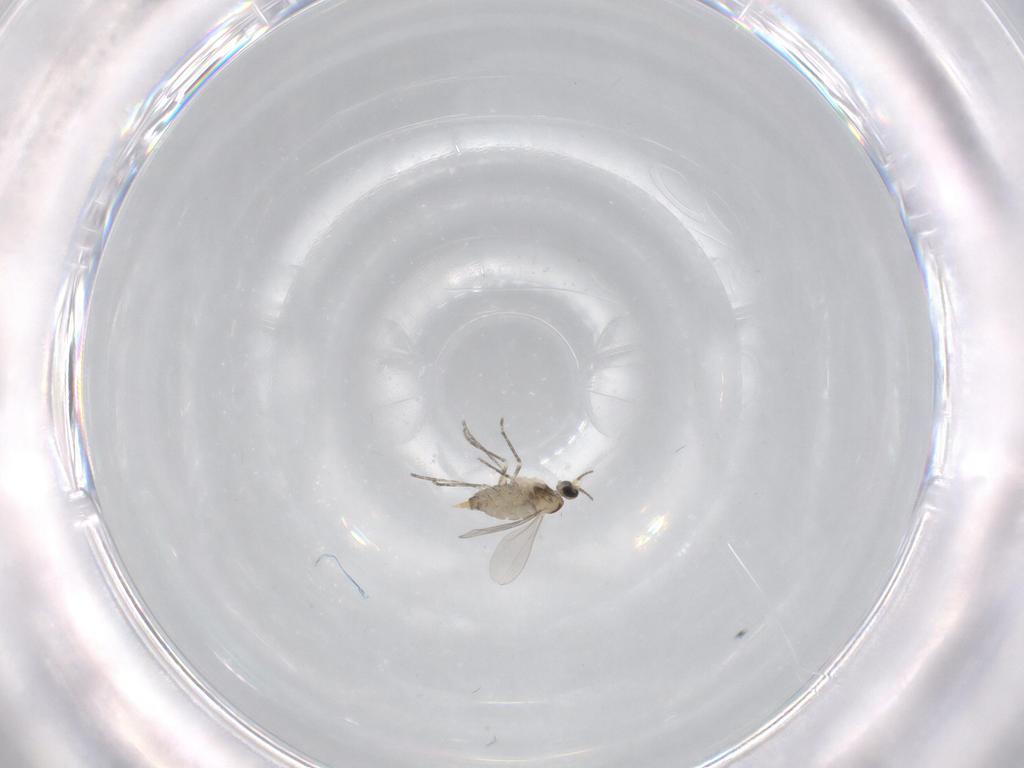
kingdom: Animalia
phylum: Arthropoda
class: Insecta
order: Diptera
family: Cecidomyiidae
